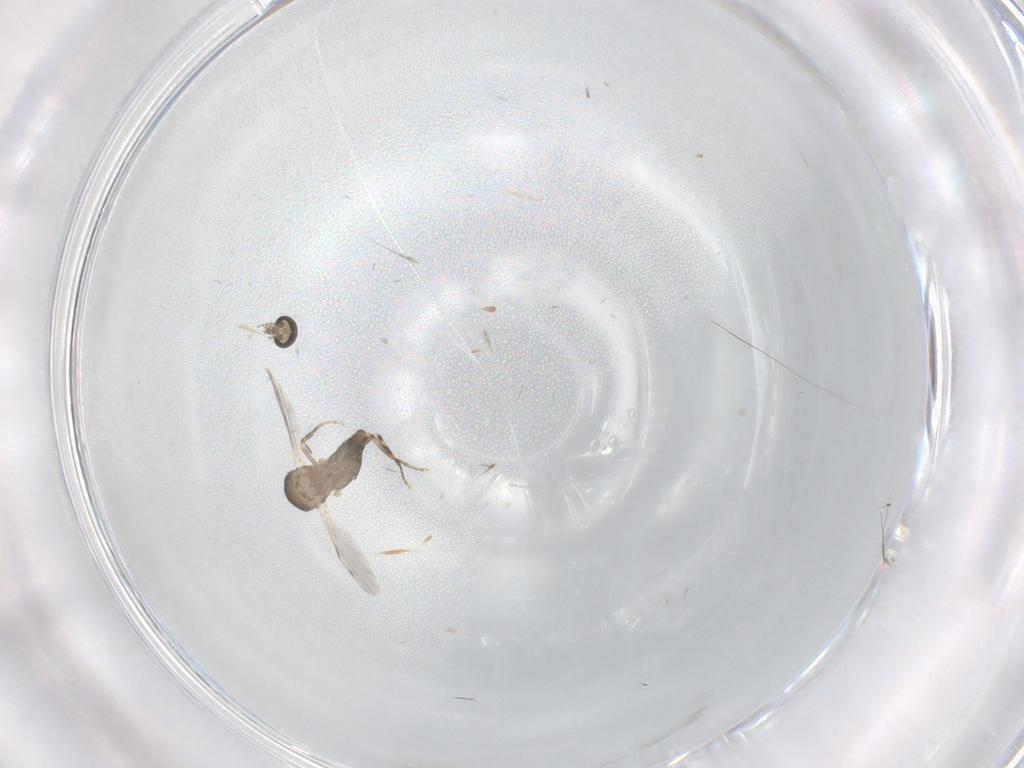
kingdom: Animalia
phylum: Arthropoda
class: Insecta
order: Diptera
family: Ceratopogonidae
